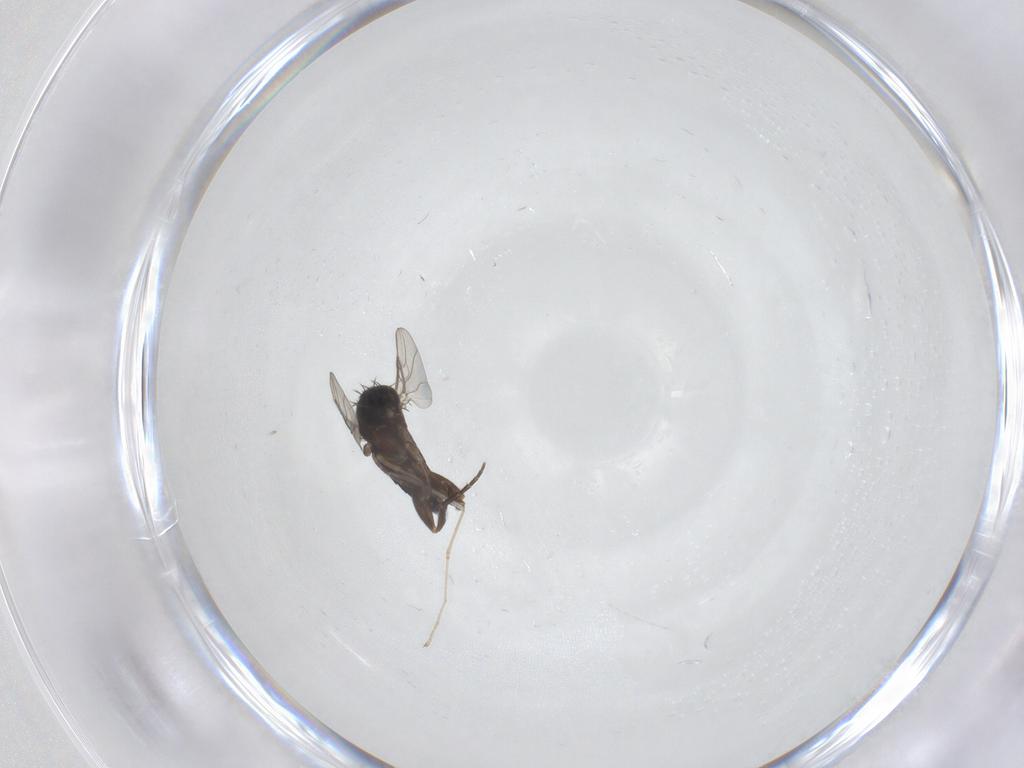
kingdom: Animalia
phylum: Arthropoda
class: Insecta
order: Diptera
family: Phoridae
